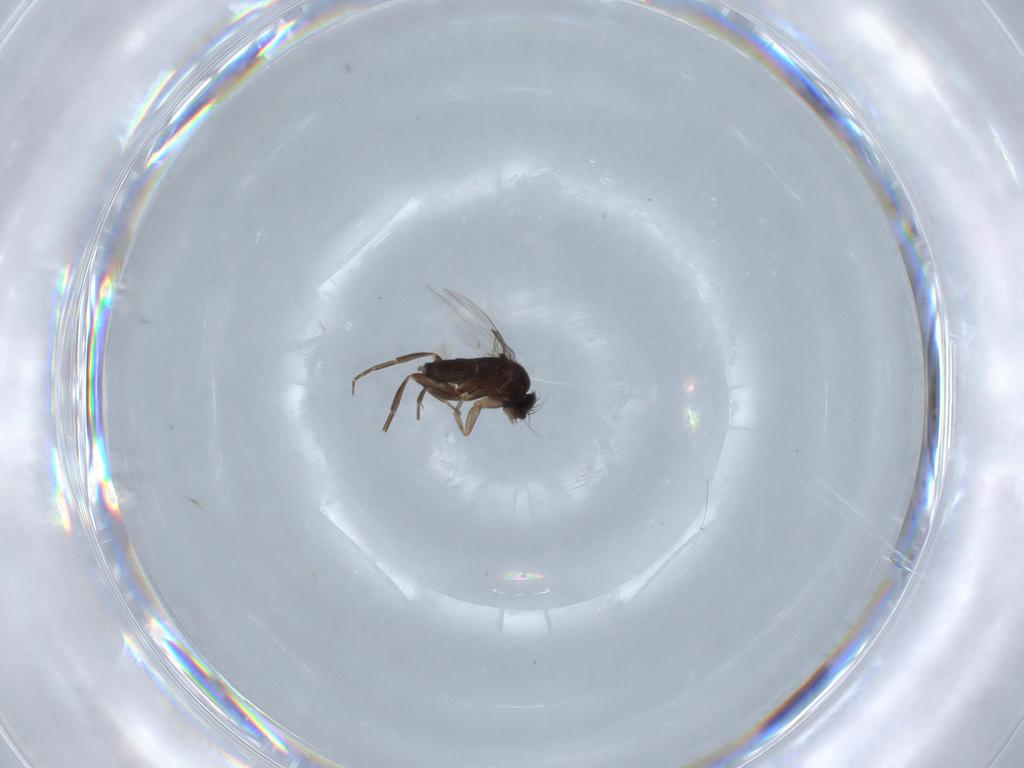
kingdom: Animalia
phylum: Arthropoda
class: Insecta
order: Diptera
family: Phoridae
